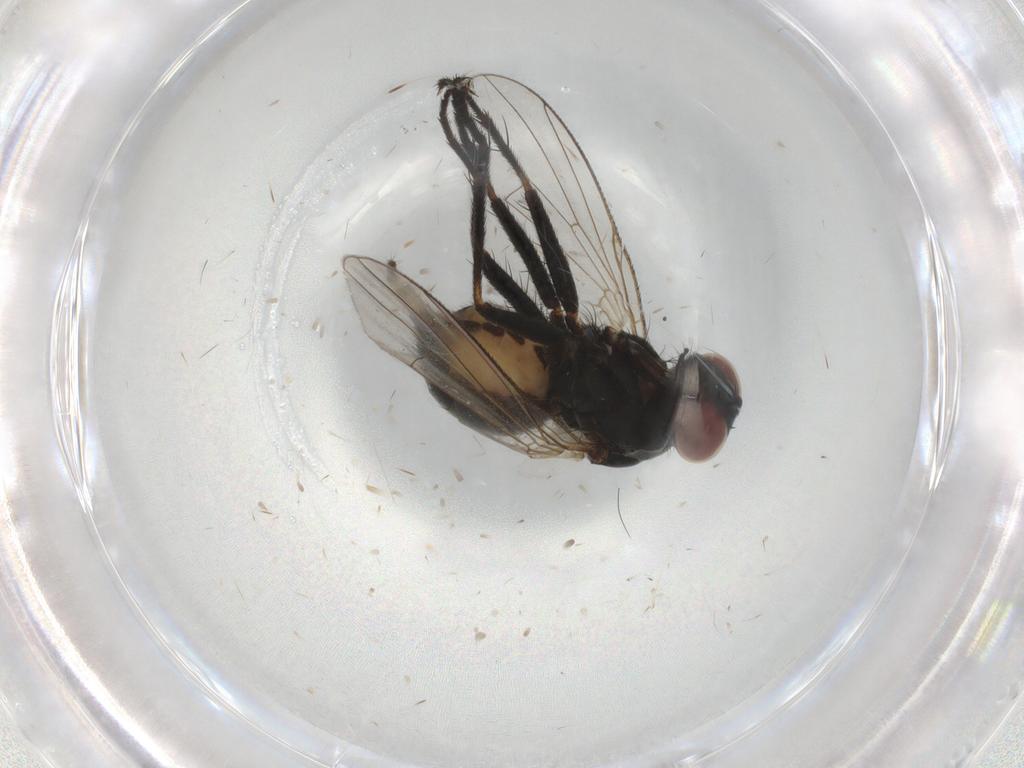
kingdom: Animalia
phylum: Arthropoda
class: Insecta
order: Diptera
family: Muscidae
